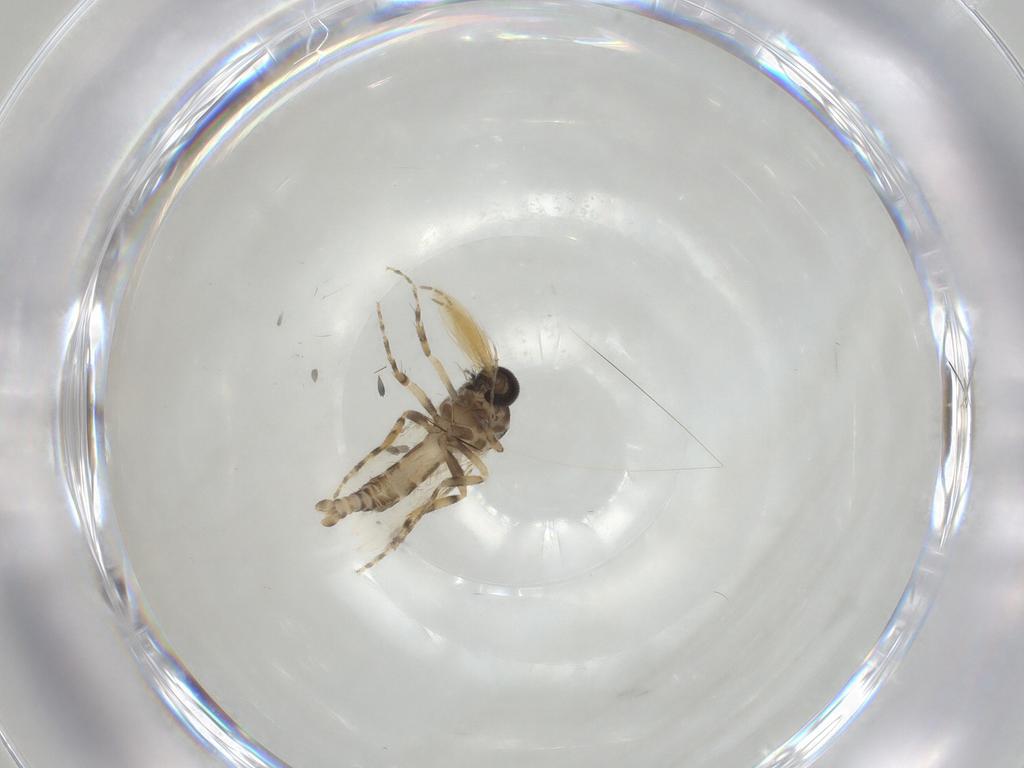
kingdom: Animalia
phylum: Arthropoda
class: Insecta
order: Diptera
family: Ceratopogonidae
